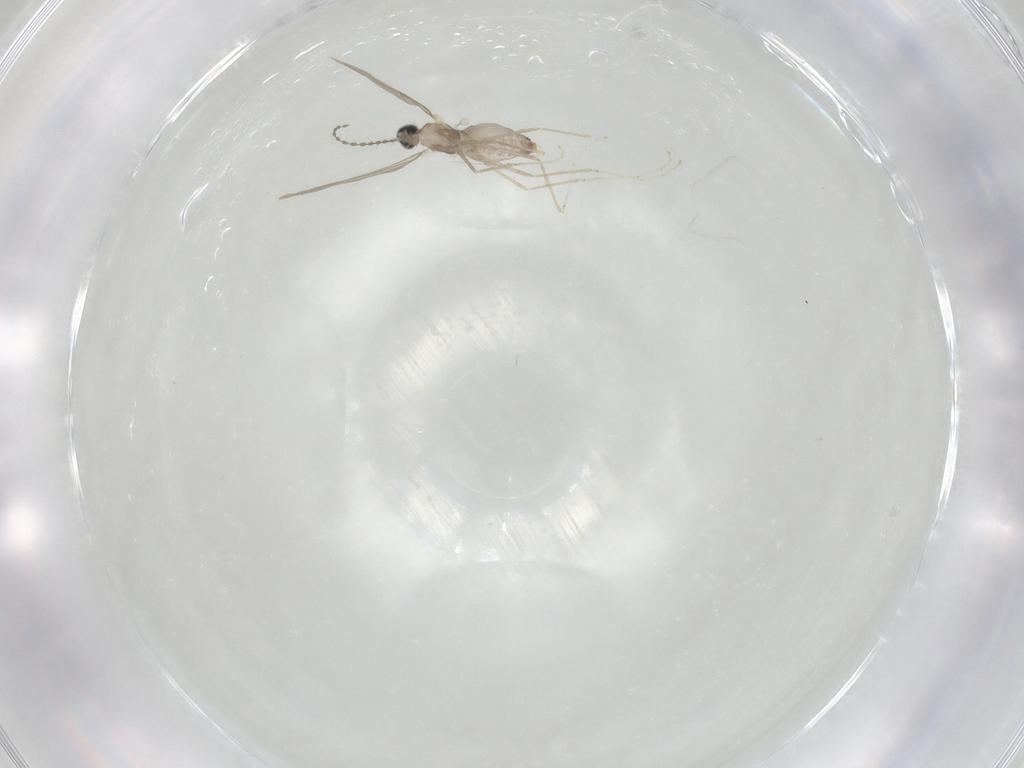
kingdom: Animalia
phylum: Arthropoda
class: Insecta
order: Diptera
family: Cecidomyiidae
